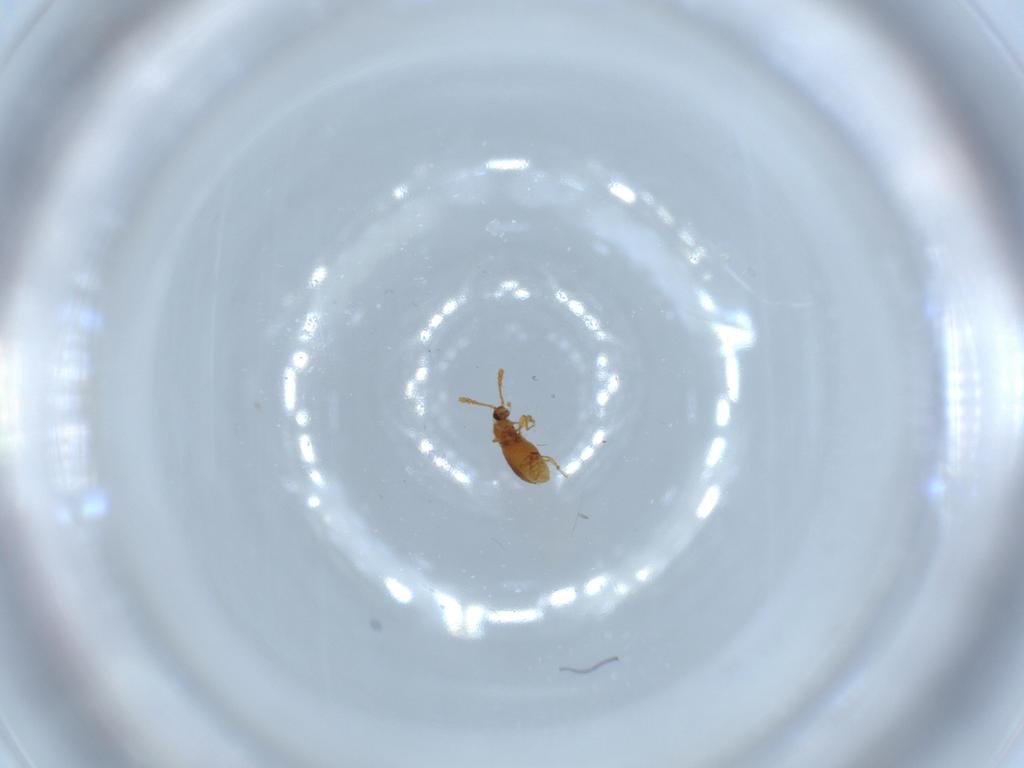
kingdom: Animalia
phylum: Arthropoda
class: Insecta
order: Coleoptera
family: Staphylinidae
